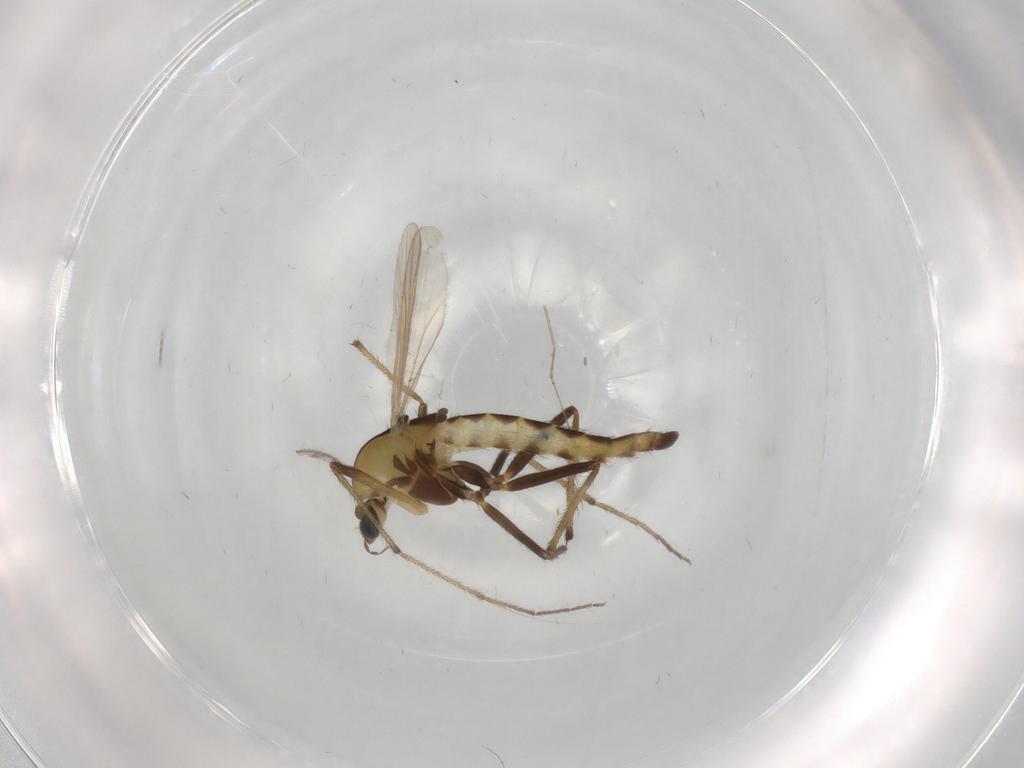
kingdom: Animalia
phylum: Arthropoda
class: Insecta
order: Diptera
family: Chironomidae
